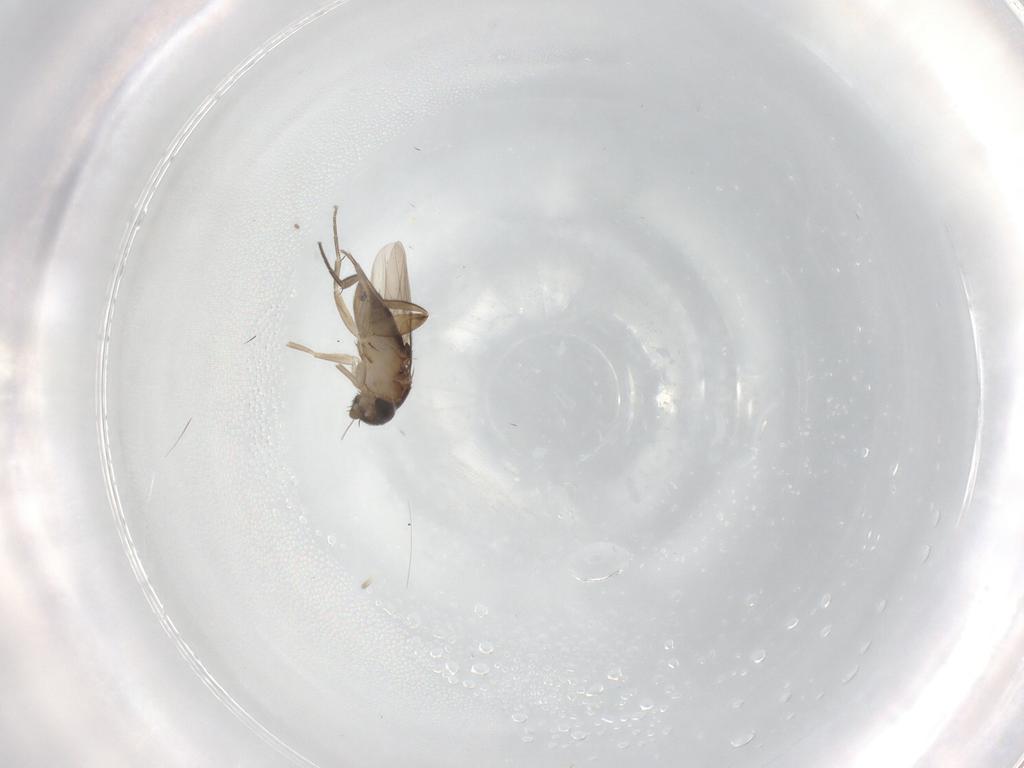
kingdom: Animalia
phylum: Arthropoda
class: Insecta
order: Diptera
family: Phoridae
